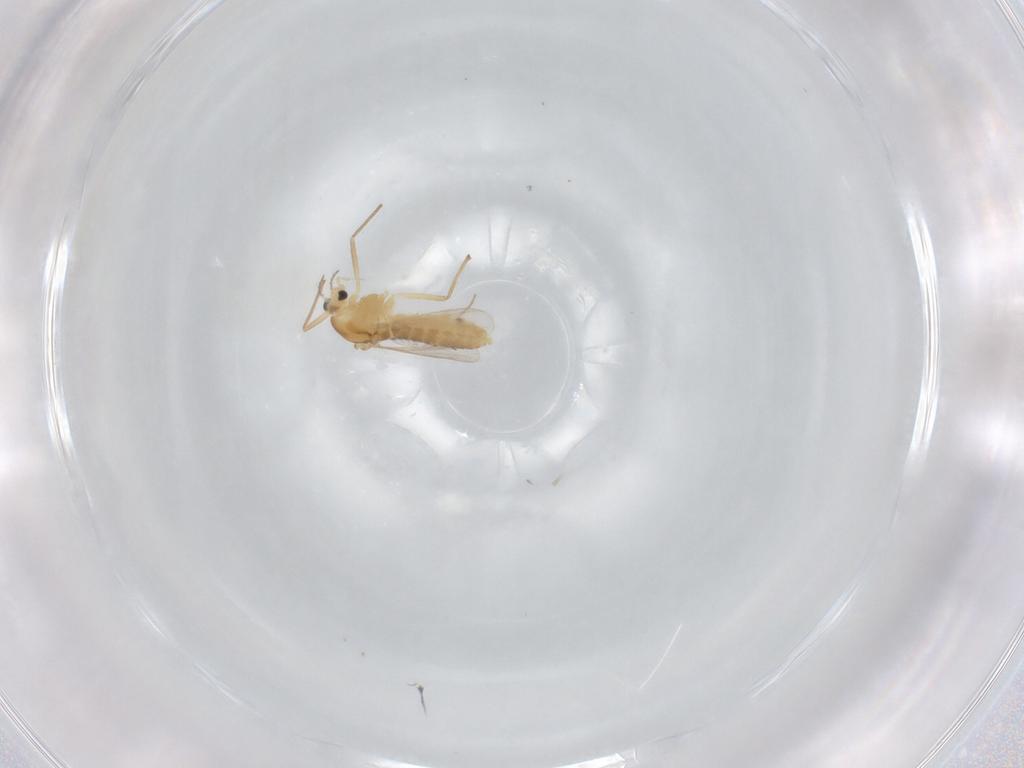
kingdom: Animalia
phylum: Arthropoda
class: Insecta
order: Diptera
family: Chironomidae
